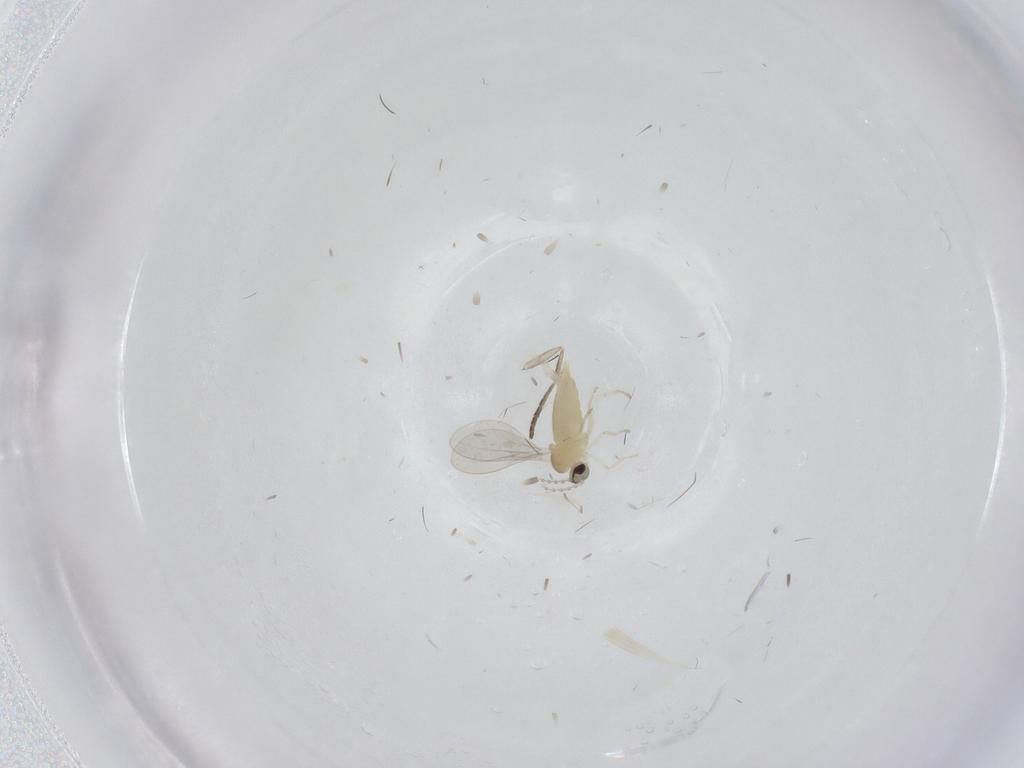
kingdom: Animalia
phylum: Arthropoda
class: Insecta
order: Diptera
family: Cecidomyiidae
